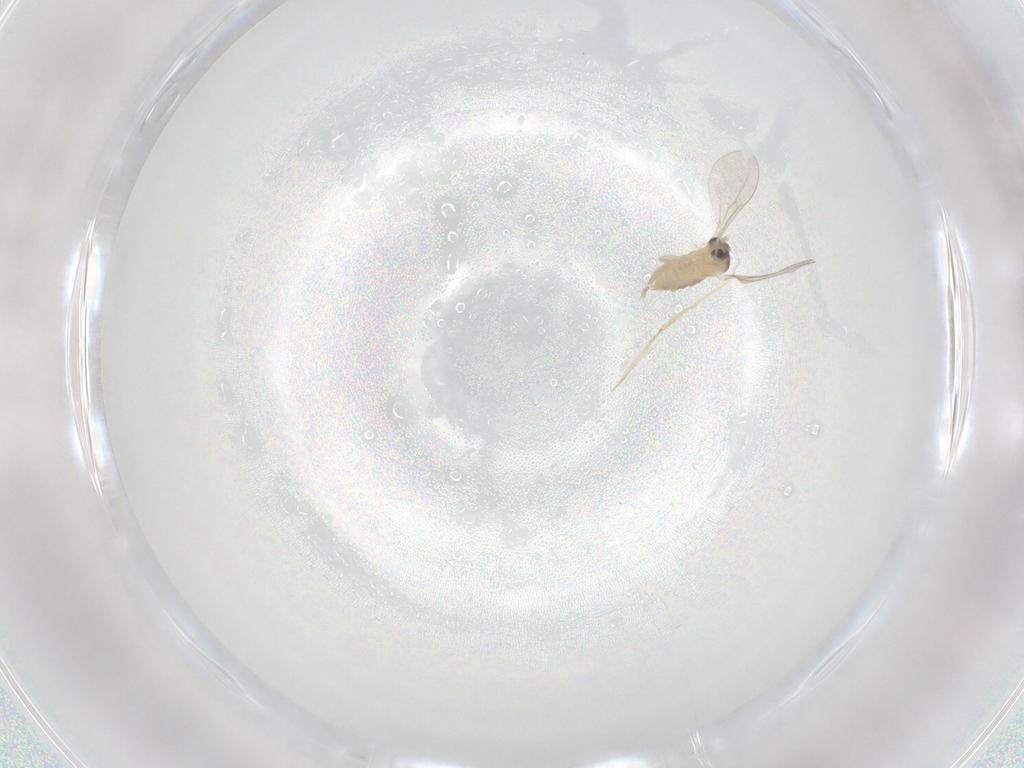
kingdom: Animalia
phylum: Arthropoda
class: Insecta
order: Diptera
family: Cecidomyiidae
